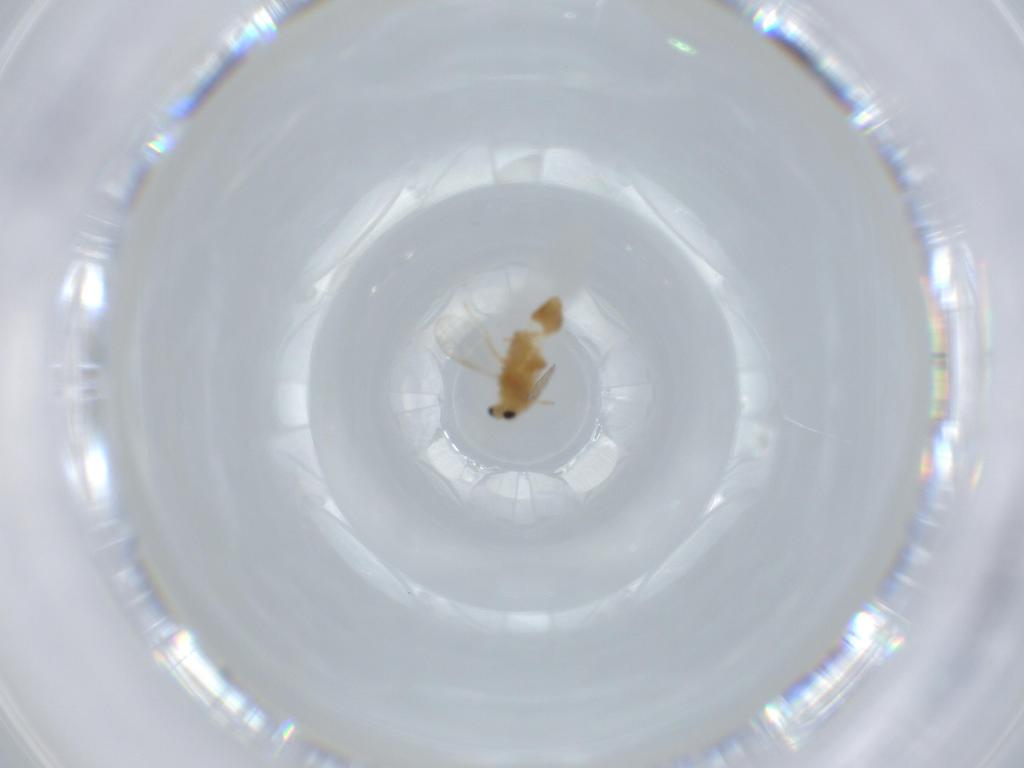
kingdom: Animalia
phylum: Arthropoda
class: Insecta
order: Diptera
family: Chironomidae
